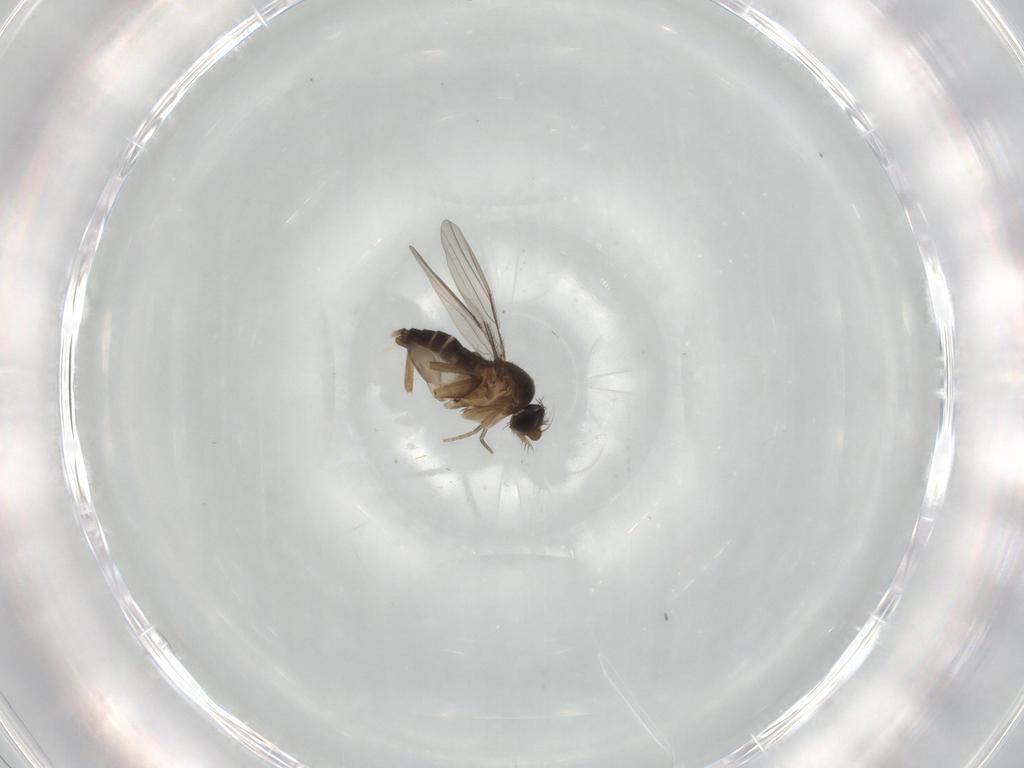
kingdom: Animalia
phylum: Arthropoda
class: Insecta
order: Diptera
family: Phoridae
